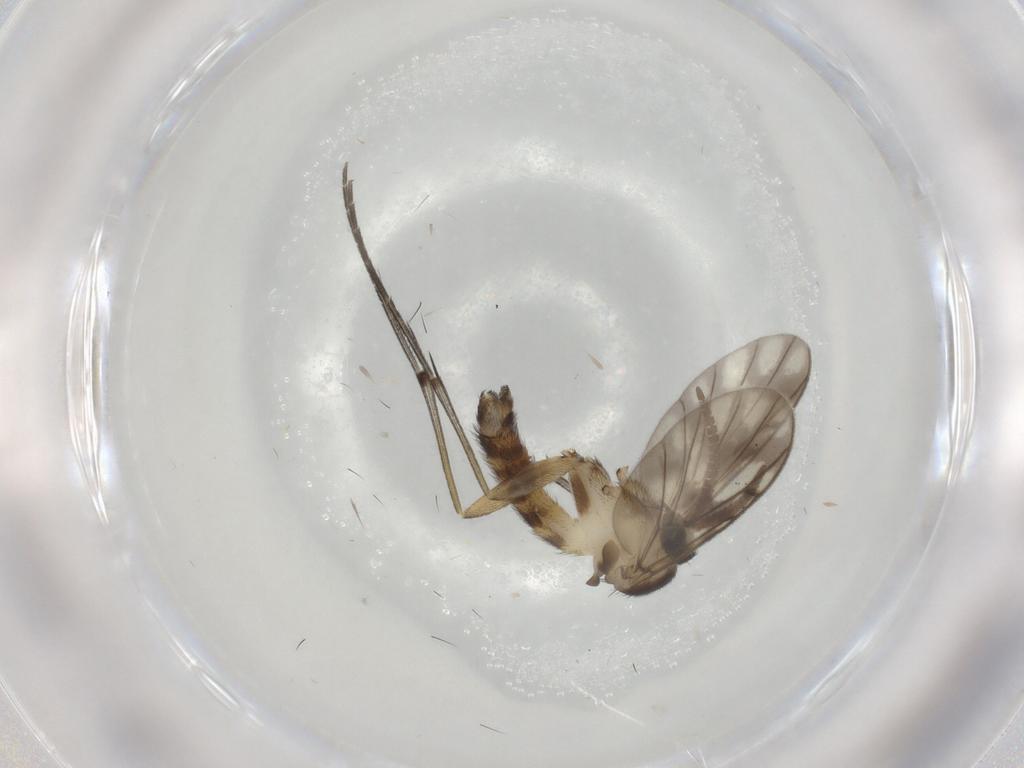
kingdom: Animalia
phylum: Arthropoda
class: Insecta
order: Diptera
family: Keroplatidae
